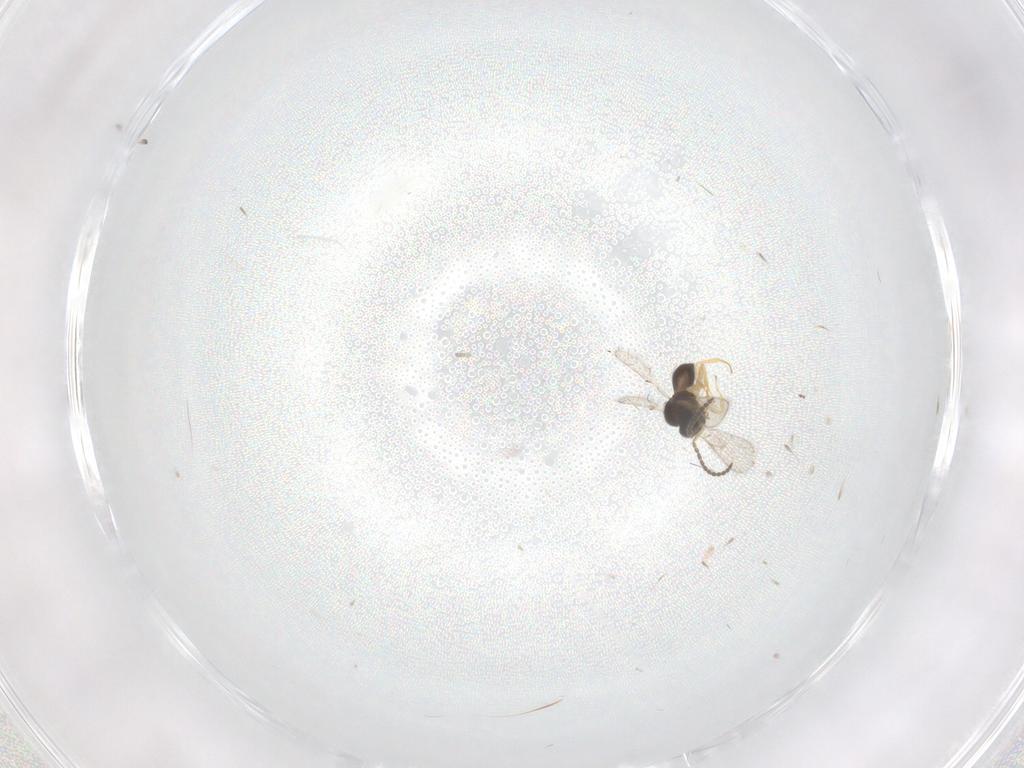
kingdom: Animalia
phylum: Arthropoda
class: Insecta
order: Hymenoptera
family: Scelionidae
